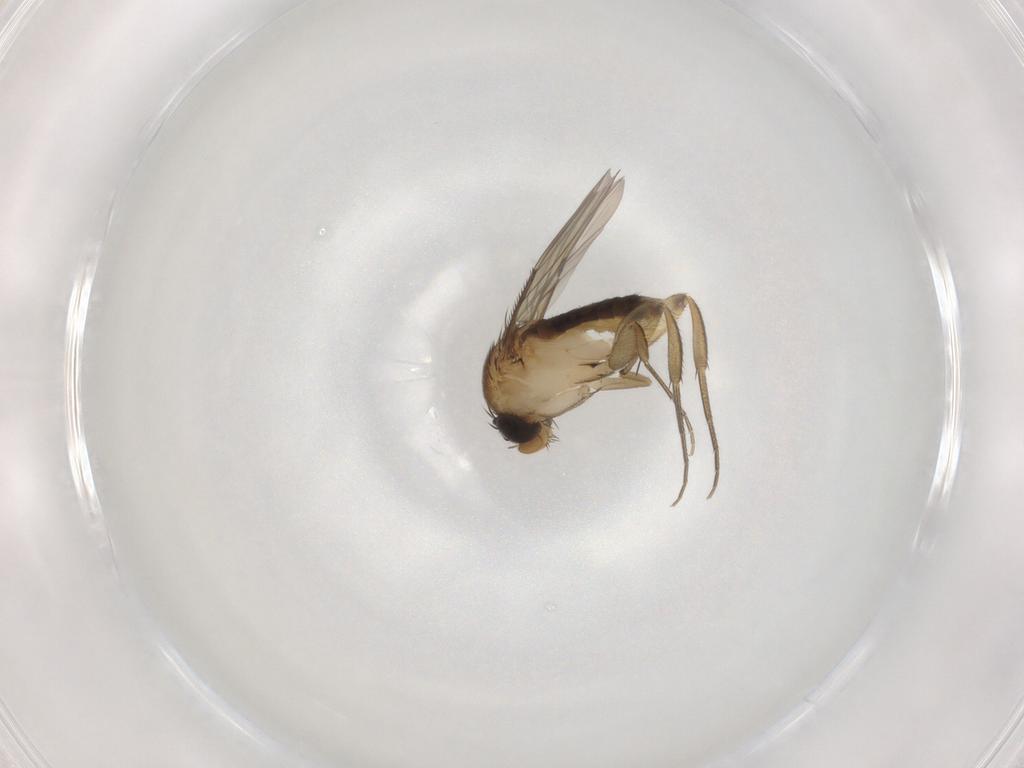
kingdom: Animalia
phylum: Arthropoda
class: Insecta
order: Diptera
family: Phoridae
